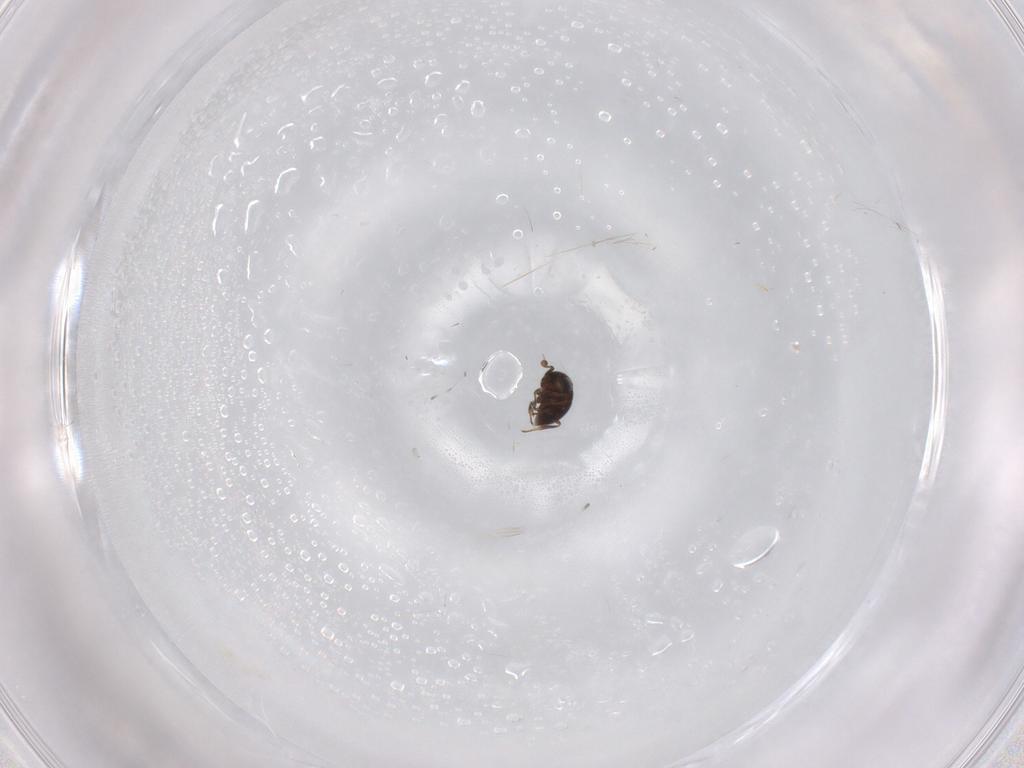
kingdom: Animalia
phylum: Arthropoda
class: Insecta
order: Hymenoptera
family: Scelionidae
